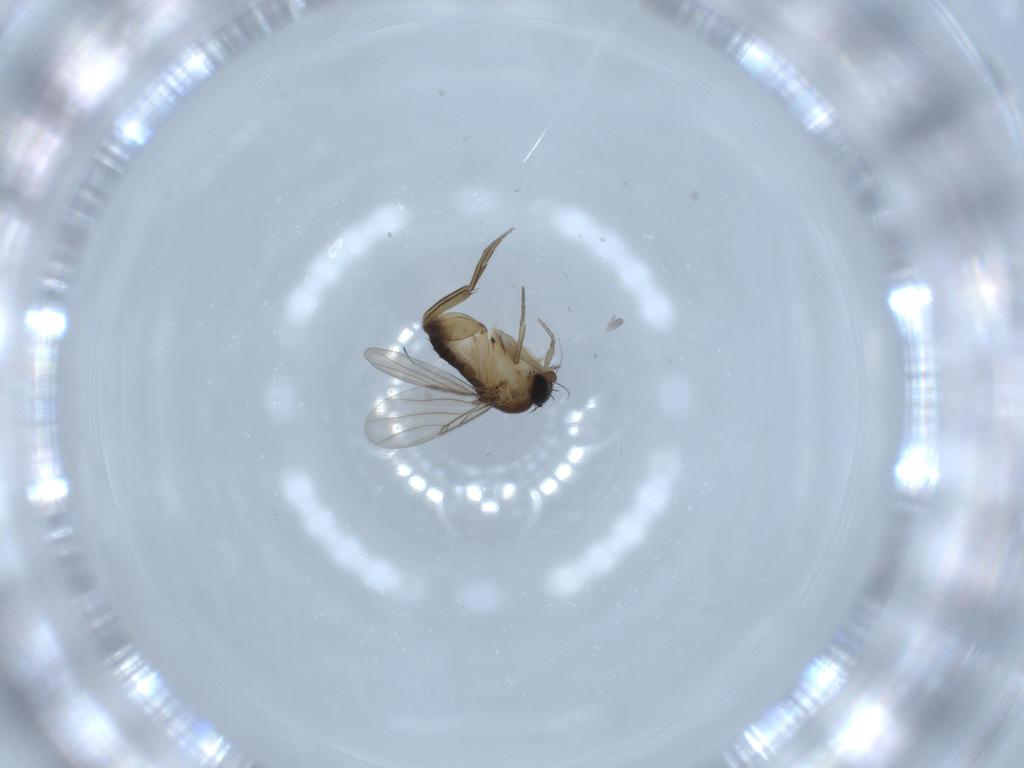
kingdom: Animalia
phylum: Arthropoda
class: Insecta
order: Diptera
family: Phoridae
